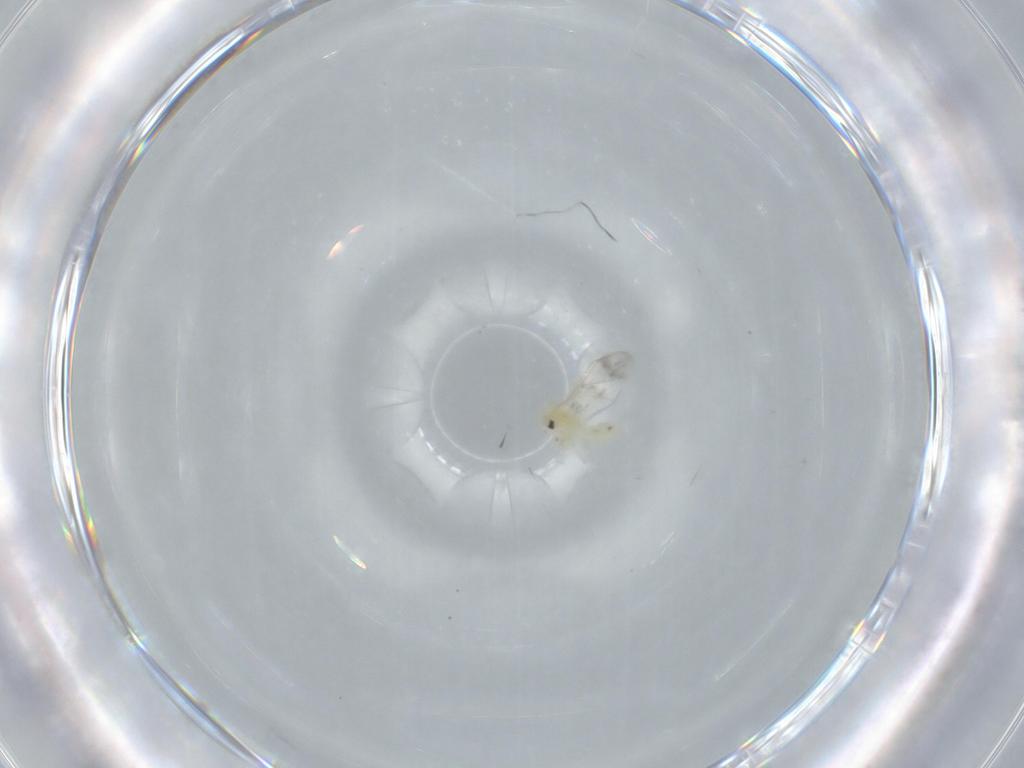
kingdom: Animalia
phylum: Arthropoda
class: Insecta
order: Hemiptera
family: Aleyrodidae
